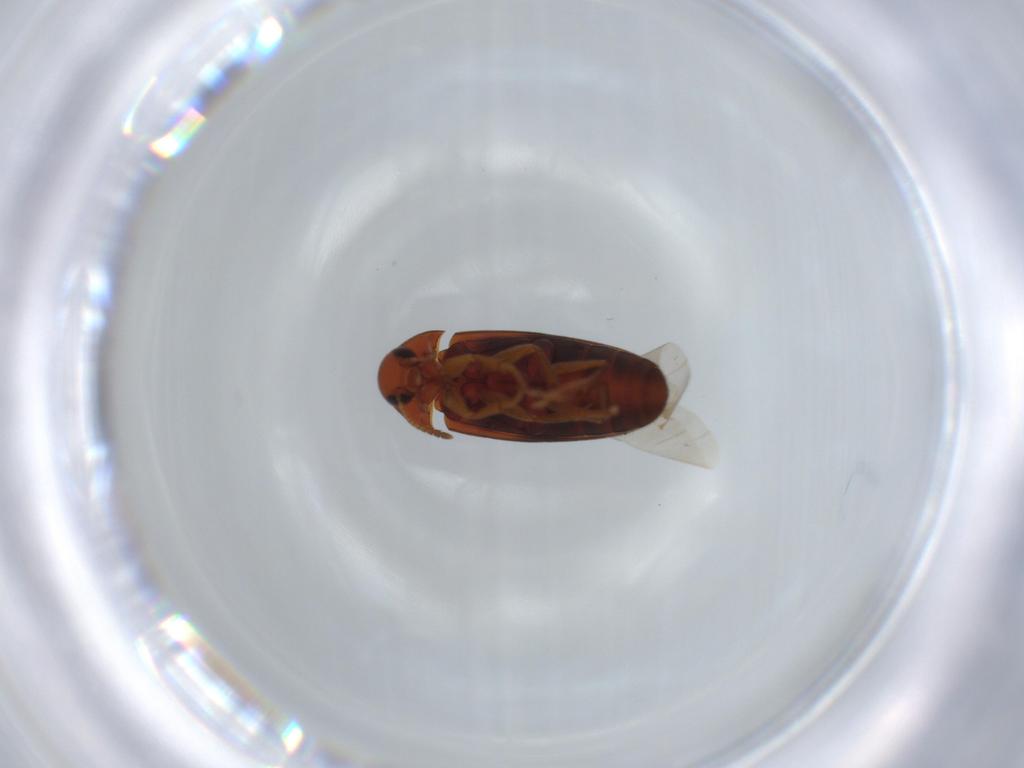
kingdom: Animalia
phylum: Arthropoda
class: Insecta
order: Coleoptera
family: Scraptiidae
